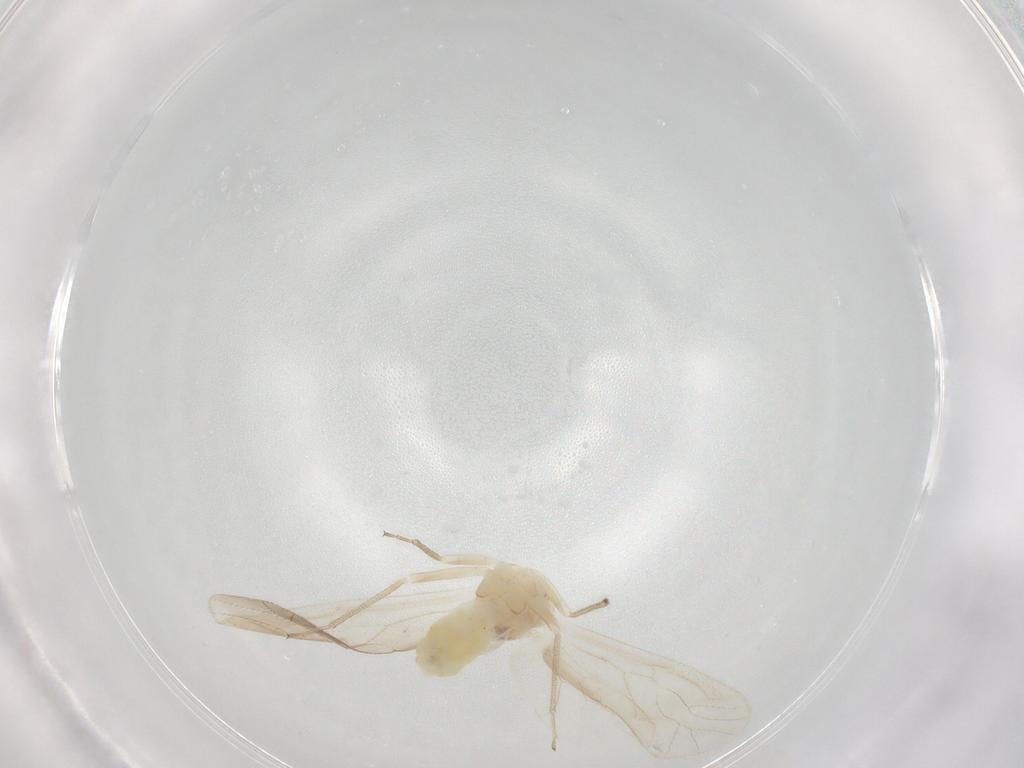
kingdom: Animalia
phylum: Arthropoda
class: Insecta
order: Psocodea
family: Caeciliusidae
